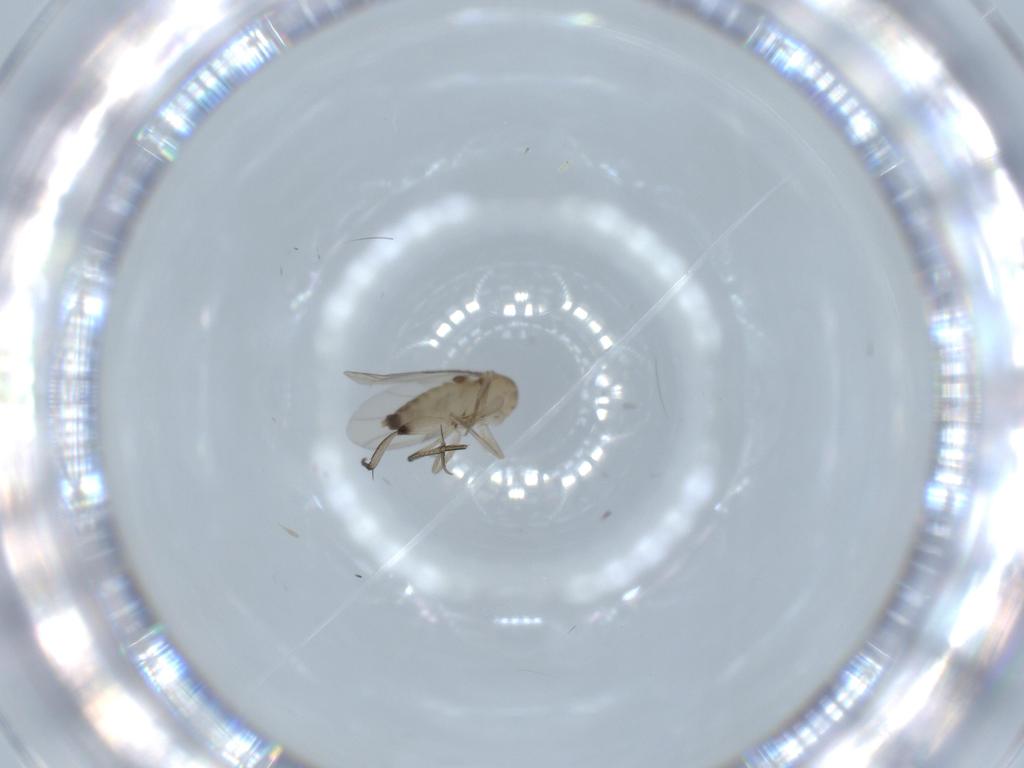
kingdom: Animalia
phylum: Arthropoda
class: Insecta
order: Diptera
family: Phoridae
